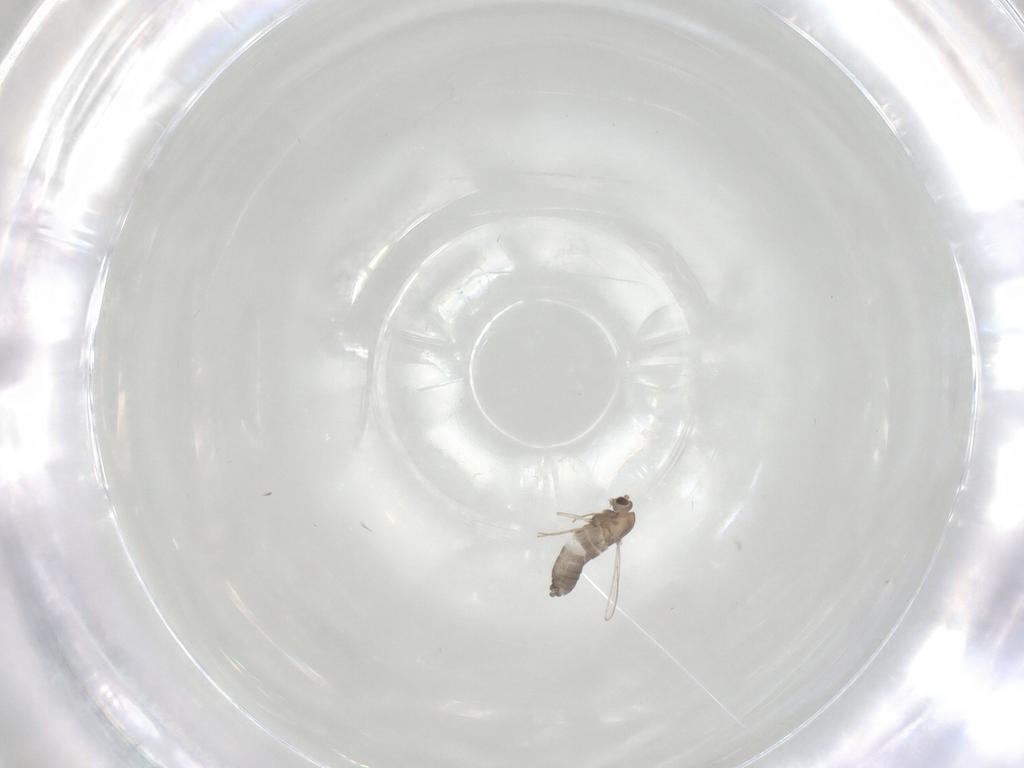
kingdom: Animalia
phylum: Arthropoda
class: Insecta
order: Diptera
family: Chironomidae
